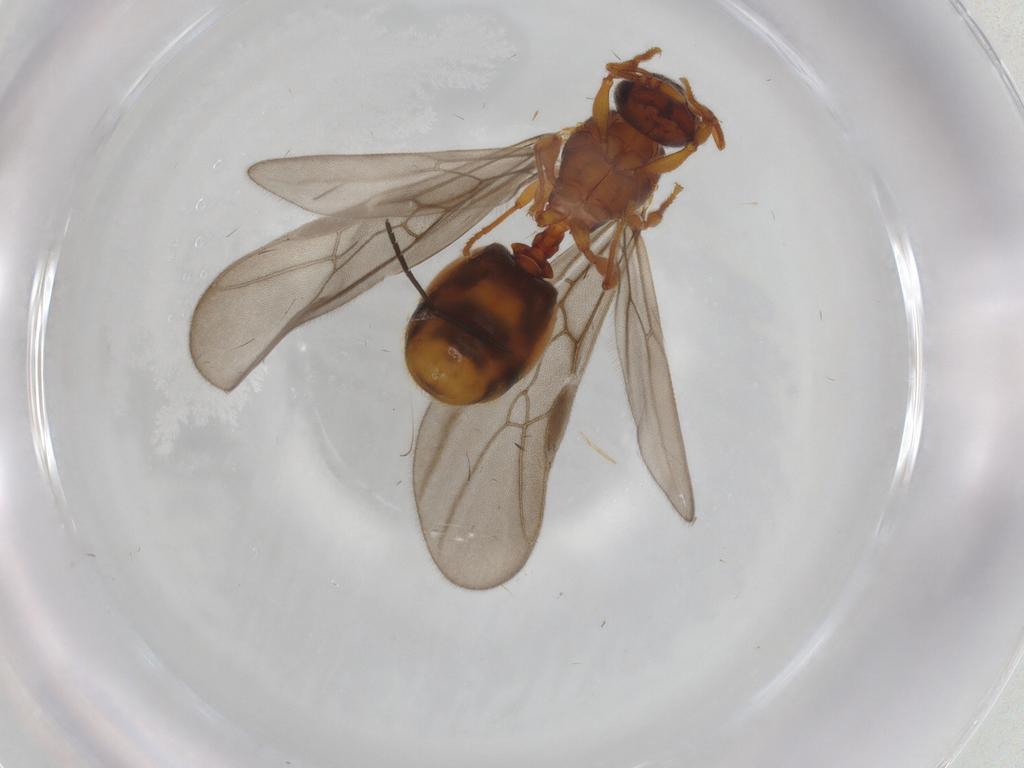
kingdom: Animalia
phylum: Arthropoda
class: Insecta
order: Hymenoptera
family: Formicidae
